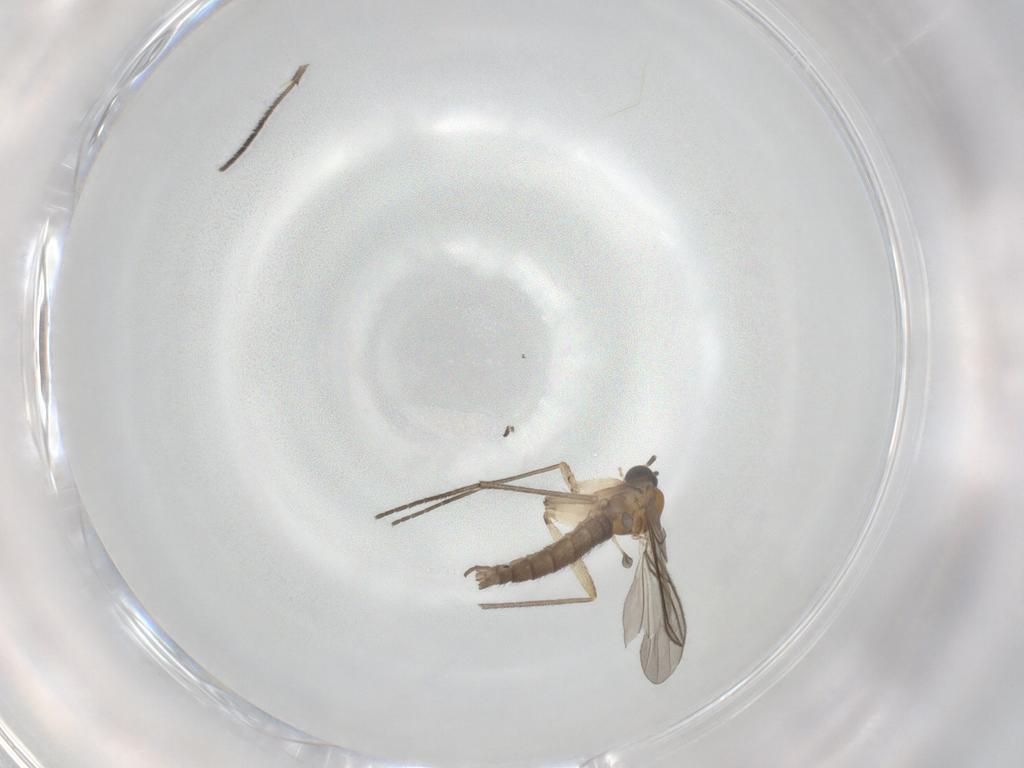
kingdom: Animalia
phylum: Arthropoda
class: Insecta
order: Diptera
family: Sciaridae
